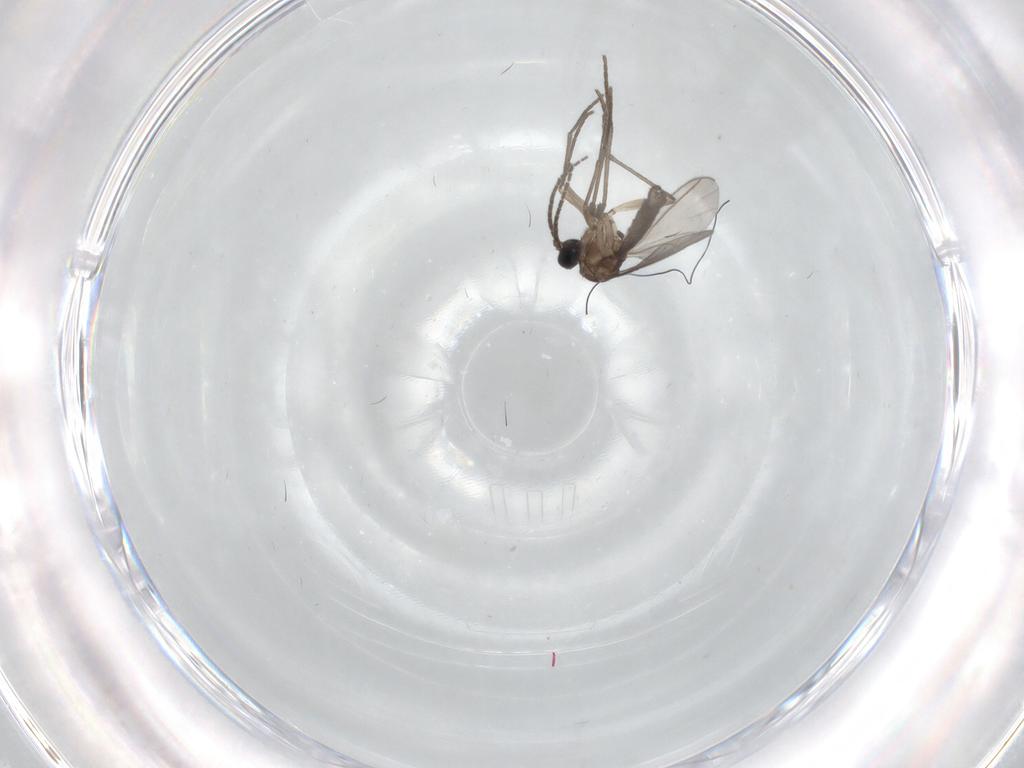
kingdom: Animalia
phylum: Arthropoda
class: Insecta
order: Diptera
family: Sciaridae
